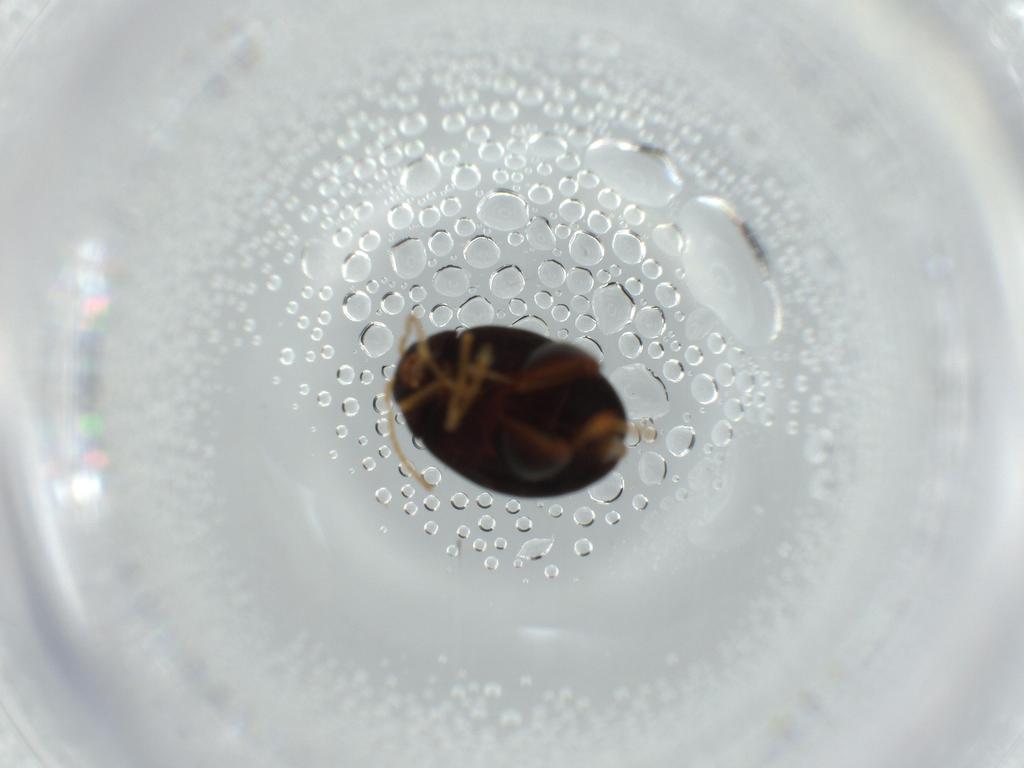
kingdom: Animalia
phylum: Arthropoda
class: Insecta
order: Coleoptera
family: Chrysomelidae
